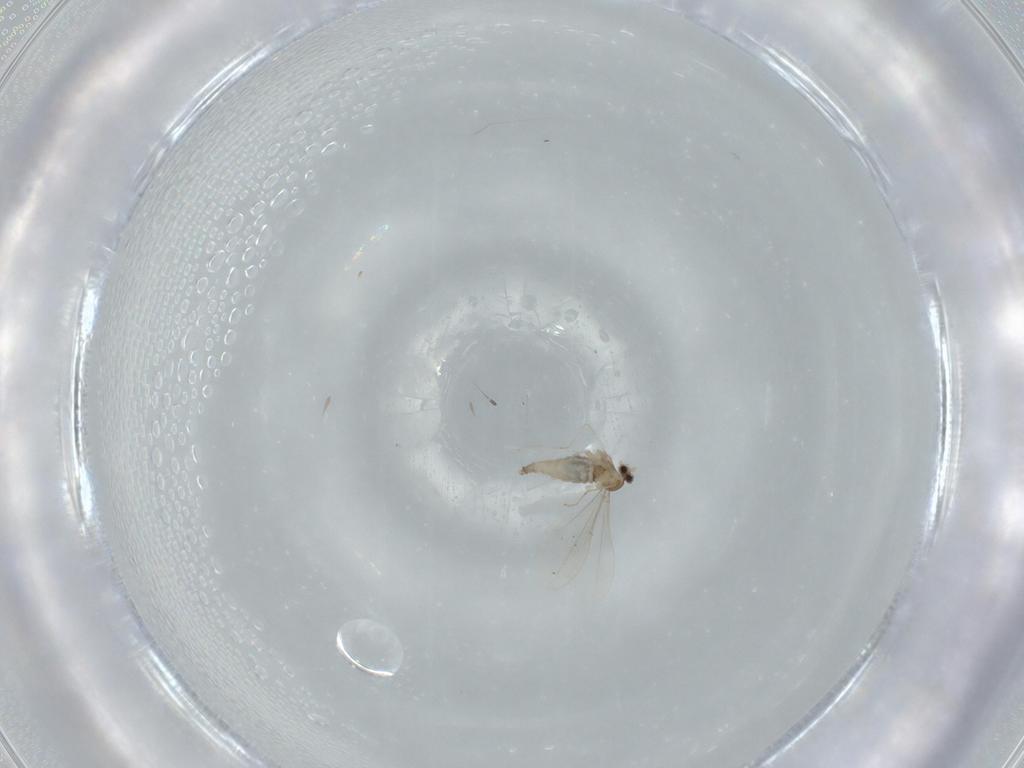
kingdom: Animalia
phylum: Arthropoda
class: Insecta
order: Diptera
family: Cecidomyiidae
